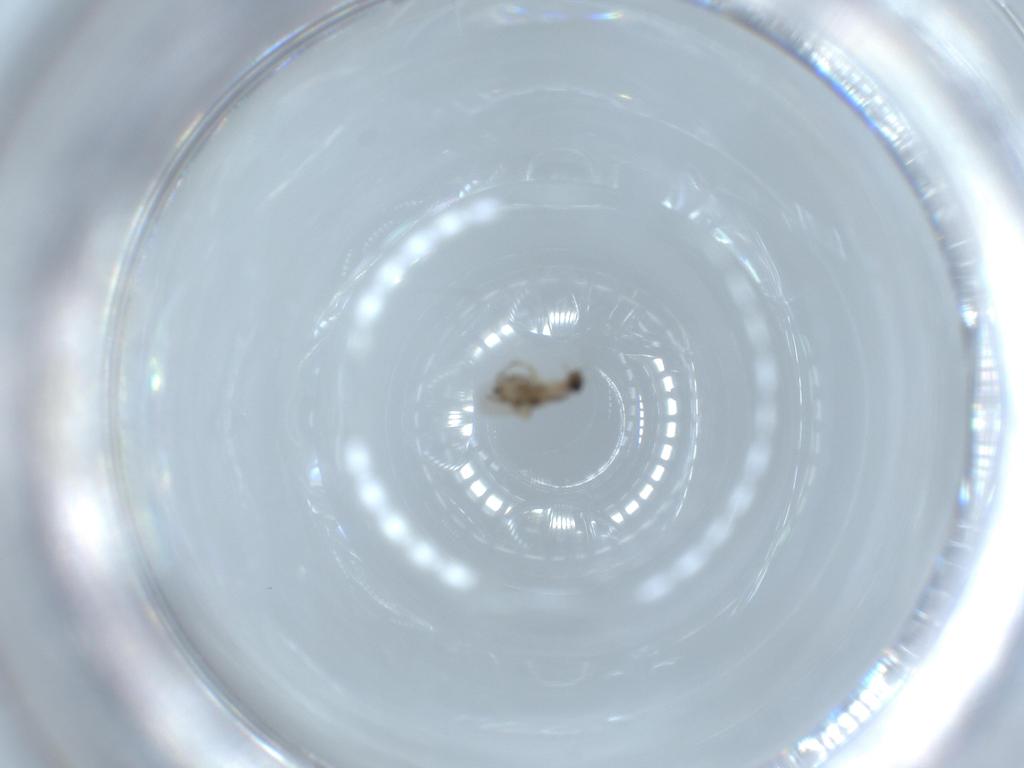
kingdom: Animalia
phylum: Arthropoda
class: Insecta
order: Diptera
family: Phoridae
